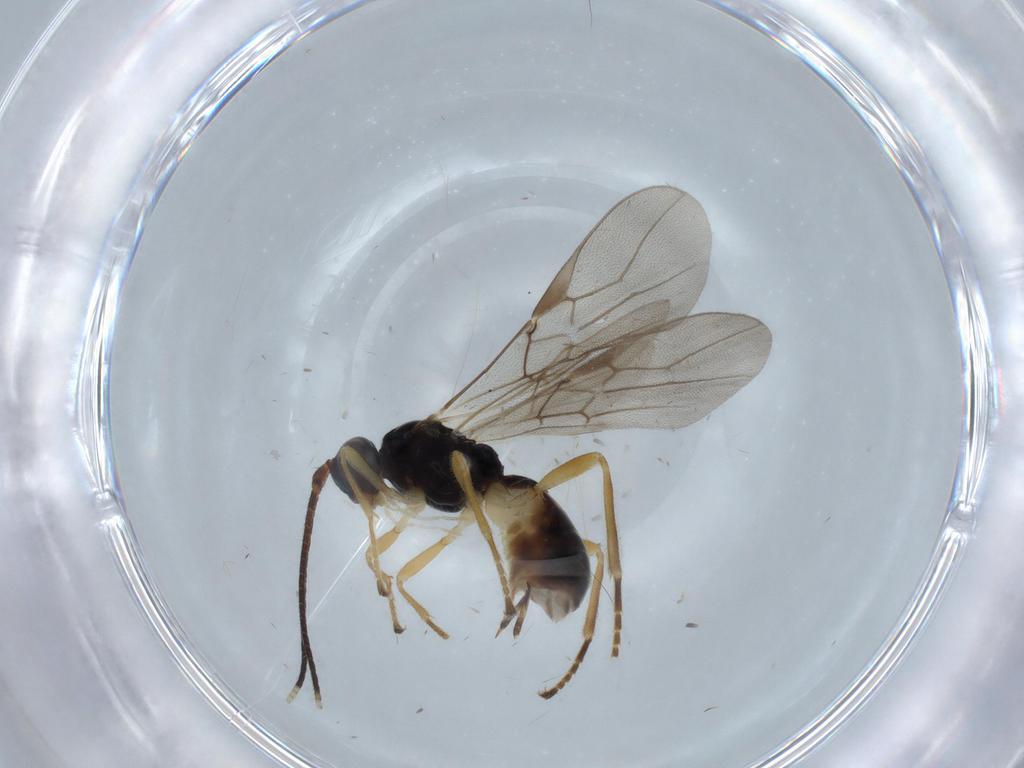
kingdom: Animalia
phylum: Arthropoda
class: Insecta
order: Hymenoptera
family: Braconidae
